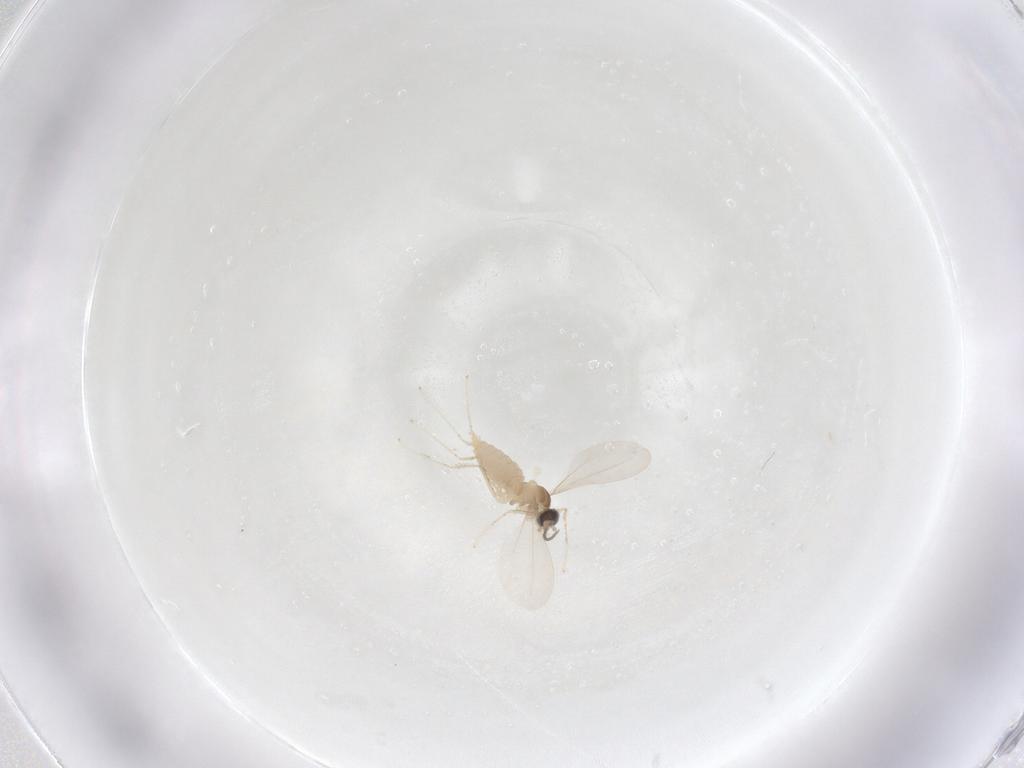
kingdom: Animalia
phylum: Arthropoda
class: Insecta
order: Diptera
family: Cecidomyiidae
